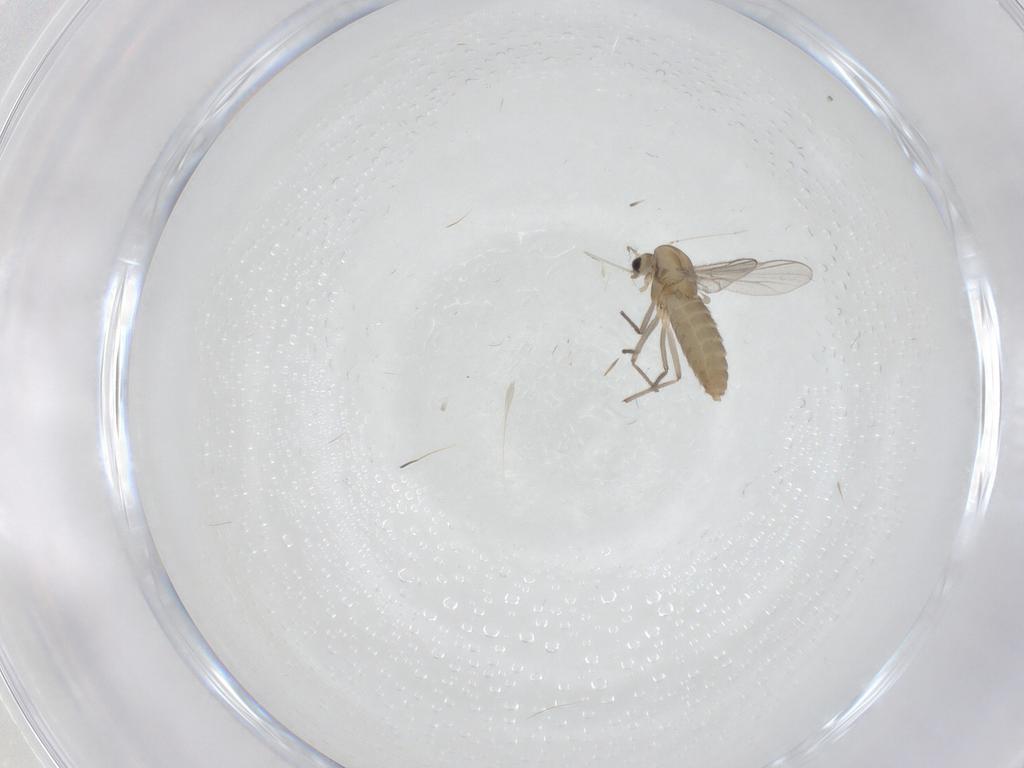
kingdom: Animalia
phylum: Arthropoda
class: Insecta
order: Diptera
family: Chironomidae
